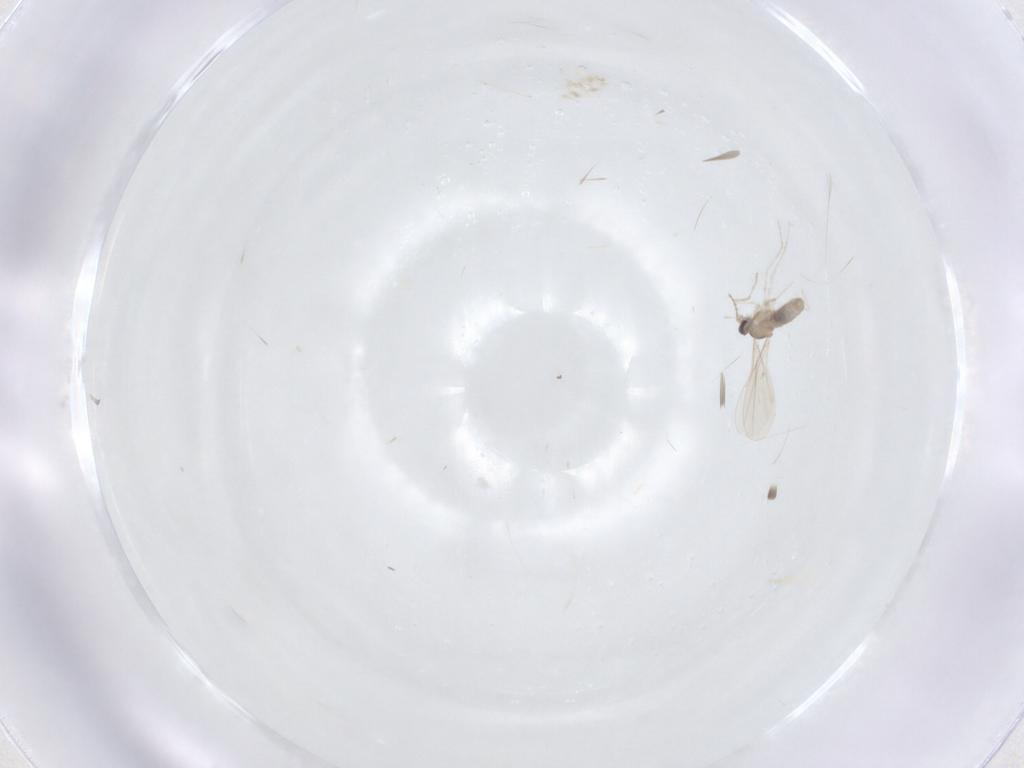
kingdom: Animalia
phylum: Arthropoda
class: Insecta
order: Diptera
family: Cecidomyiidae
